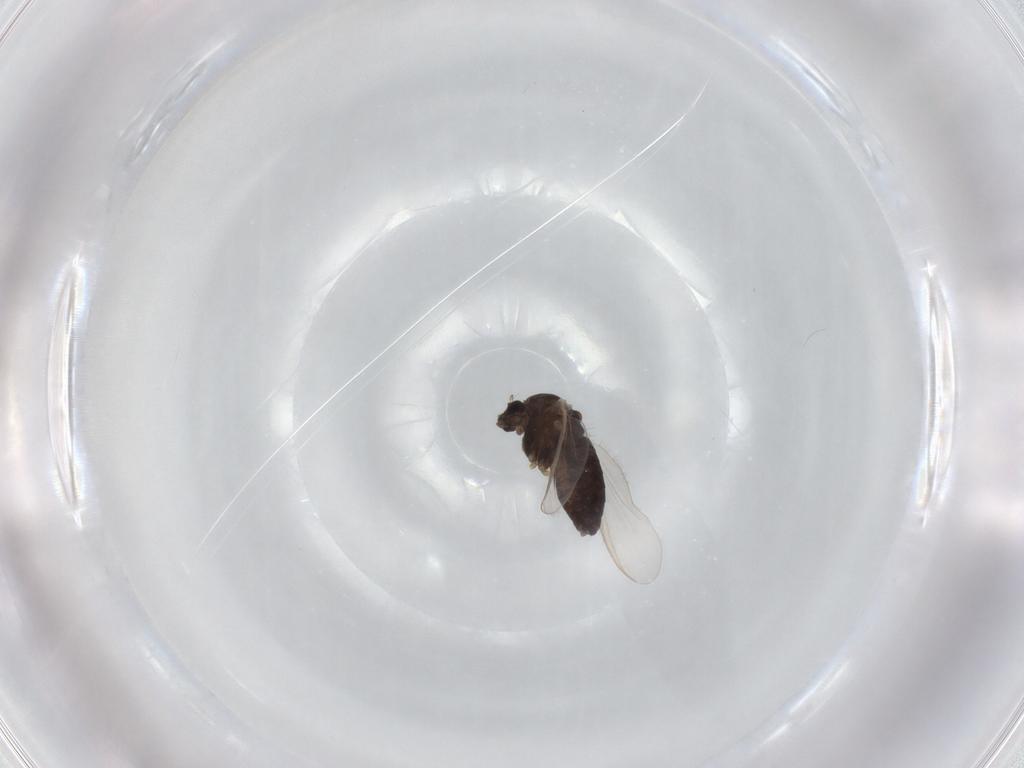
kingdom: Animalia
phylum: Arthropoda
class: Insecta
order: Diptera
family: Chironomidae
